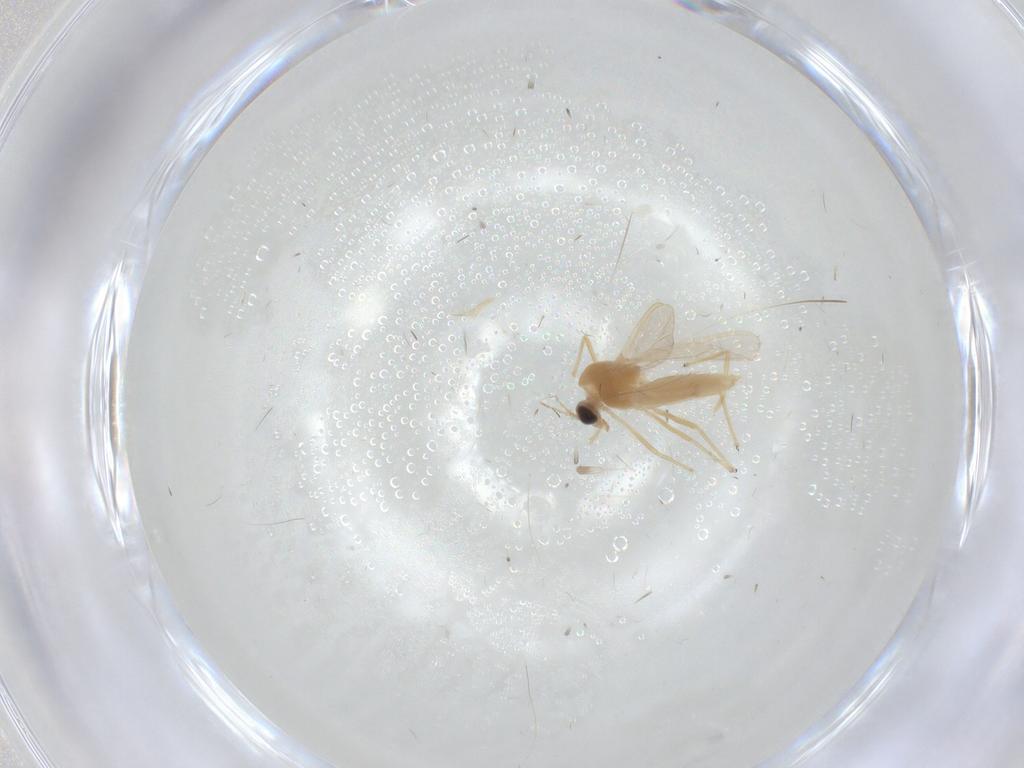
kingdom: Animalia
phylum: Arthropoda
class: Insecta
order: Diptera
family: Chironomidae
